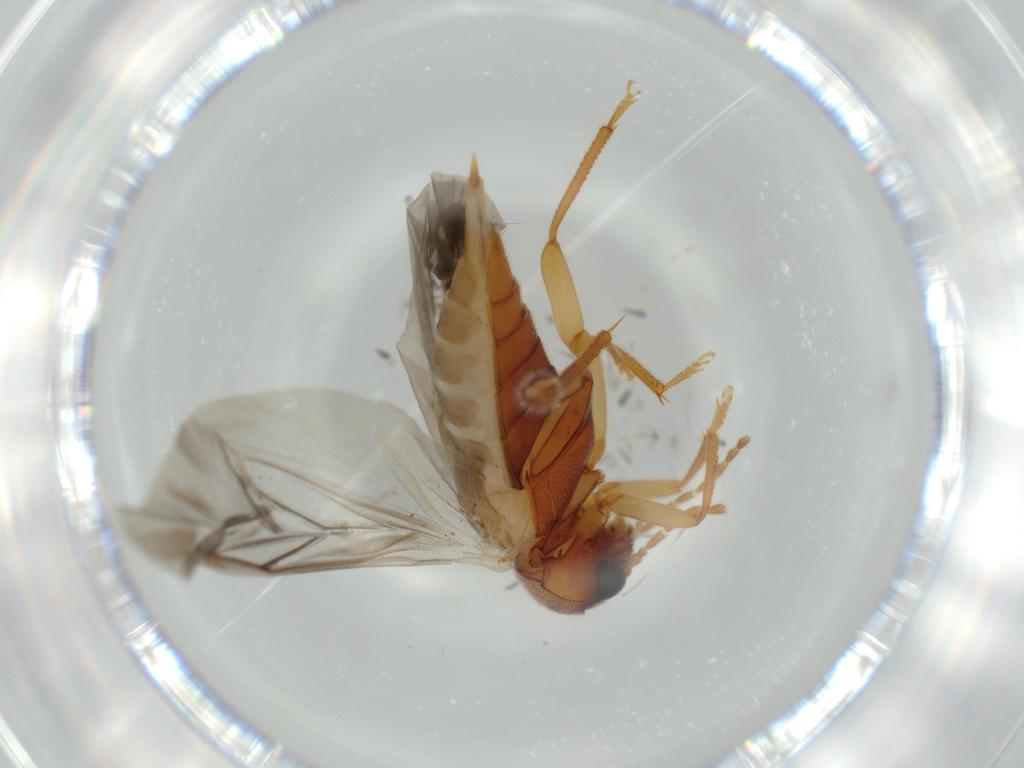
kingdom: Animalia
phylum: Arthropoda
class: Insecta
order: Coleoptera
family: Ptilodactylidae
